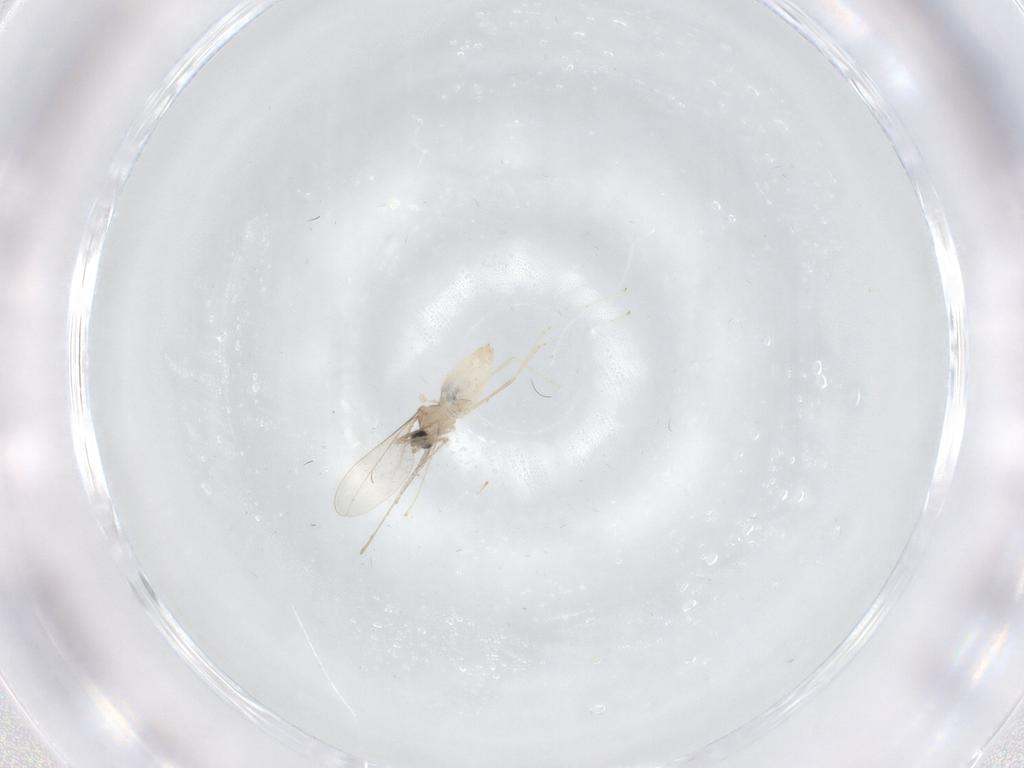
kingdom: Animalia
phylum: Arthropoda
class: Insecta
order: Diptera
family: Cecidomyiidae
